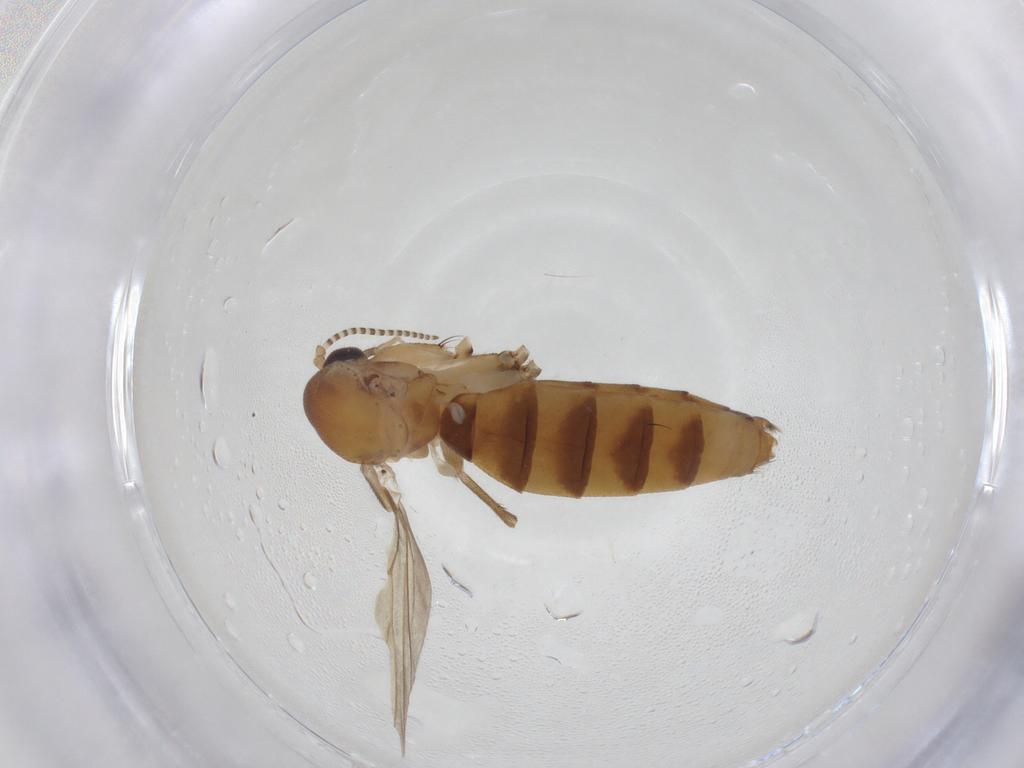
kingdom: Animalia
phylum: Arthropoda
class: Insecta
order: Diptera
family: Mycetophilidae
